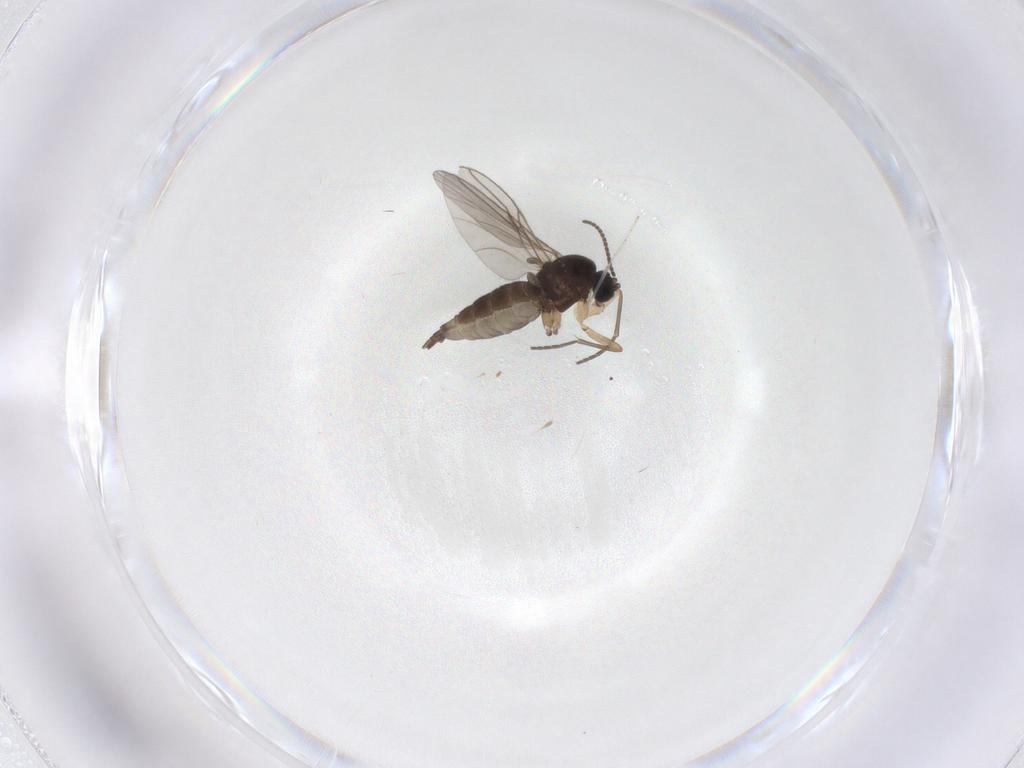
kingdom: Animalia
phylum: Arthropoda
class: Insecta
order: Diptera
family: Sciaridae
